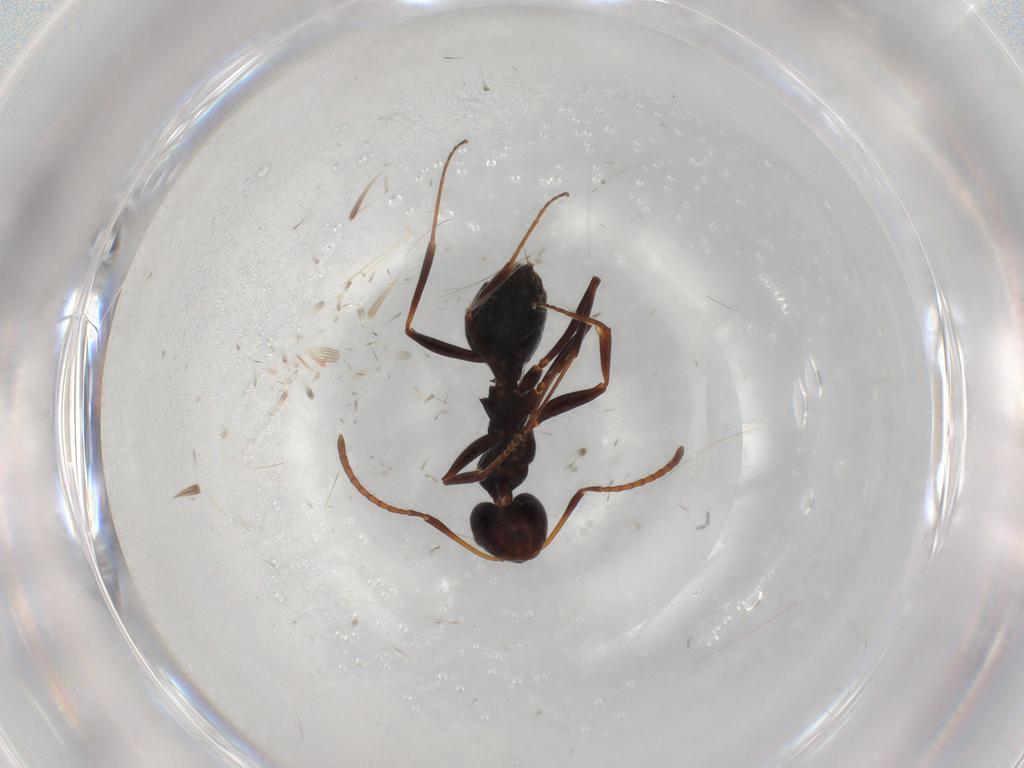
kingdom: Animalia
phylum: Arthropoda
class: Insecta
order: Hymenoptera
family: Formicidae
